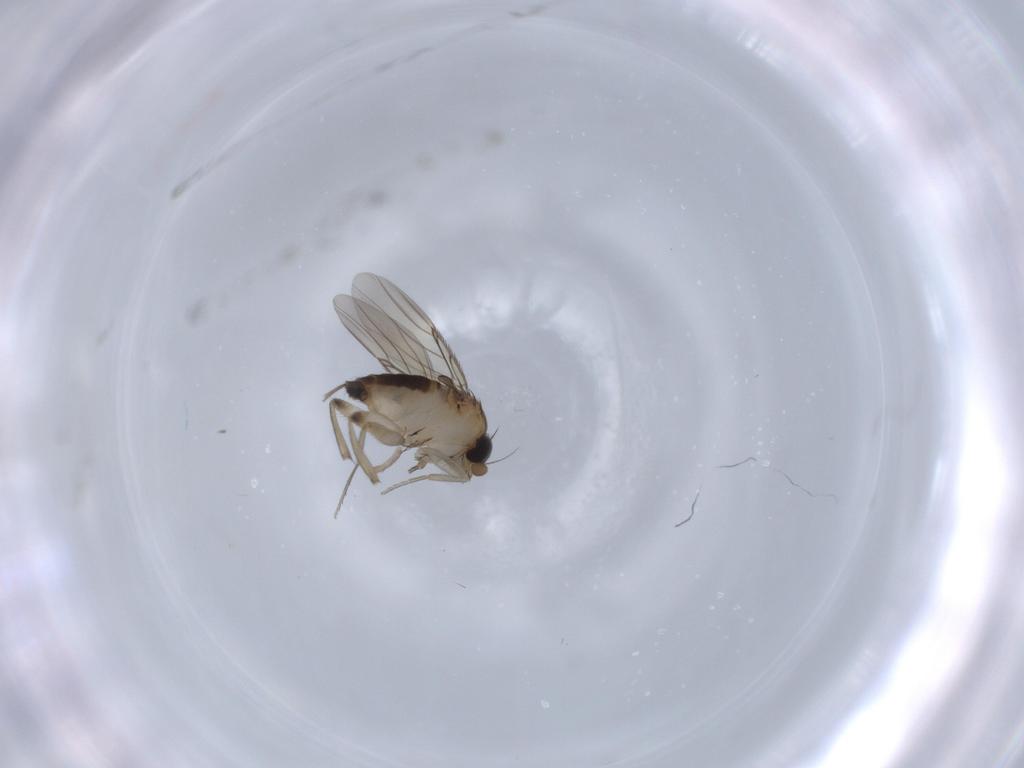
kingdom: Animalia
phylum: Arthropoda
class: Insecta
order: Diptera
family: Phoridae
